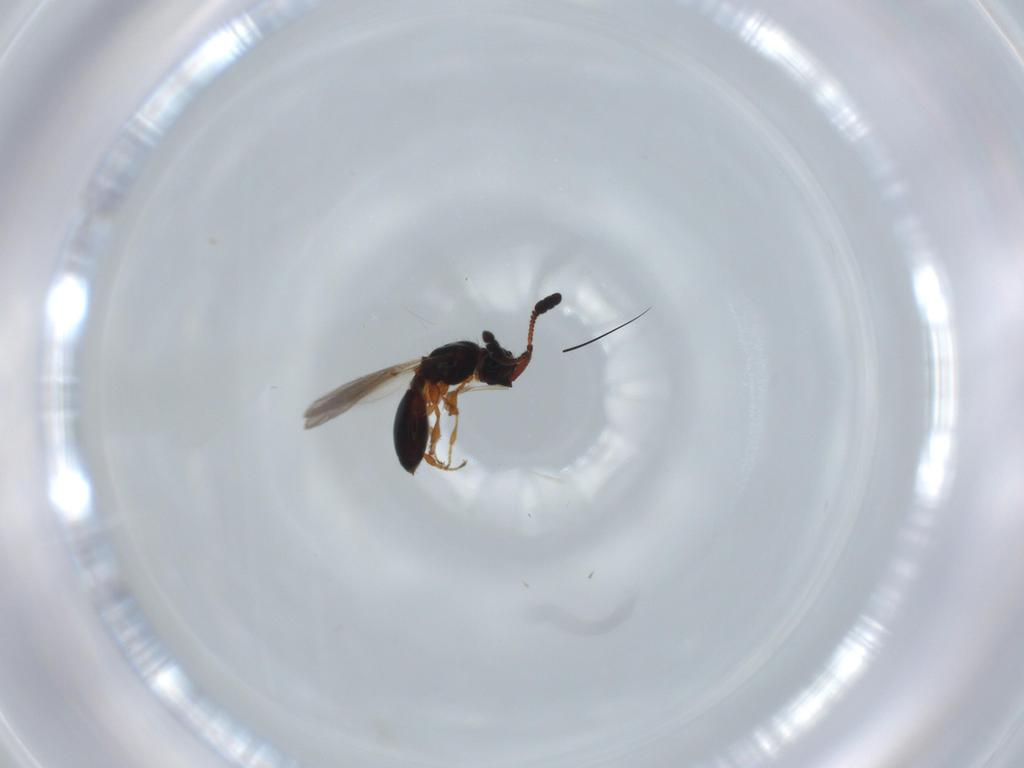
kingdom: Animalia
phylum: Arthropoda
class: Insecta
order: Hymenoptera
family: Diapriidae
